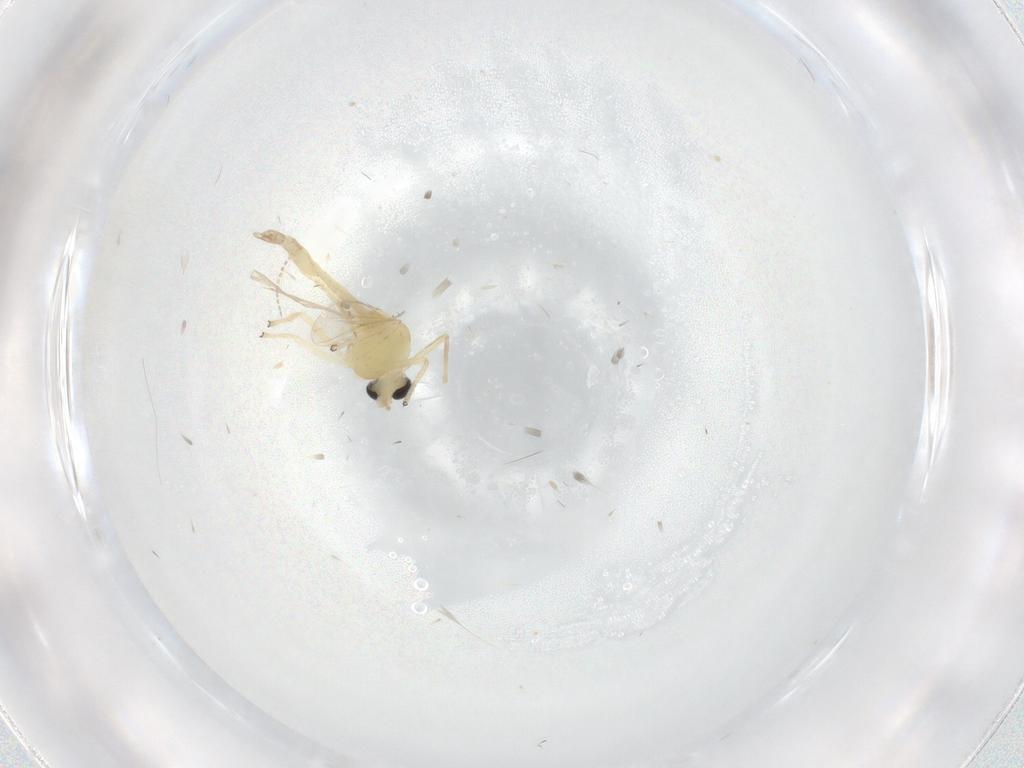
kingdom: Animalia
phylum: Arthropoda
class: Insecta
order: Diptera
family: Chironomidae
